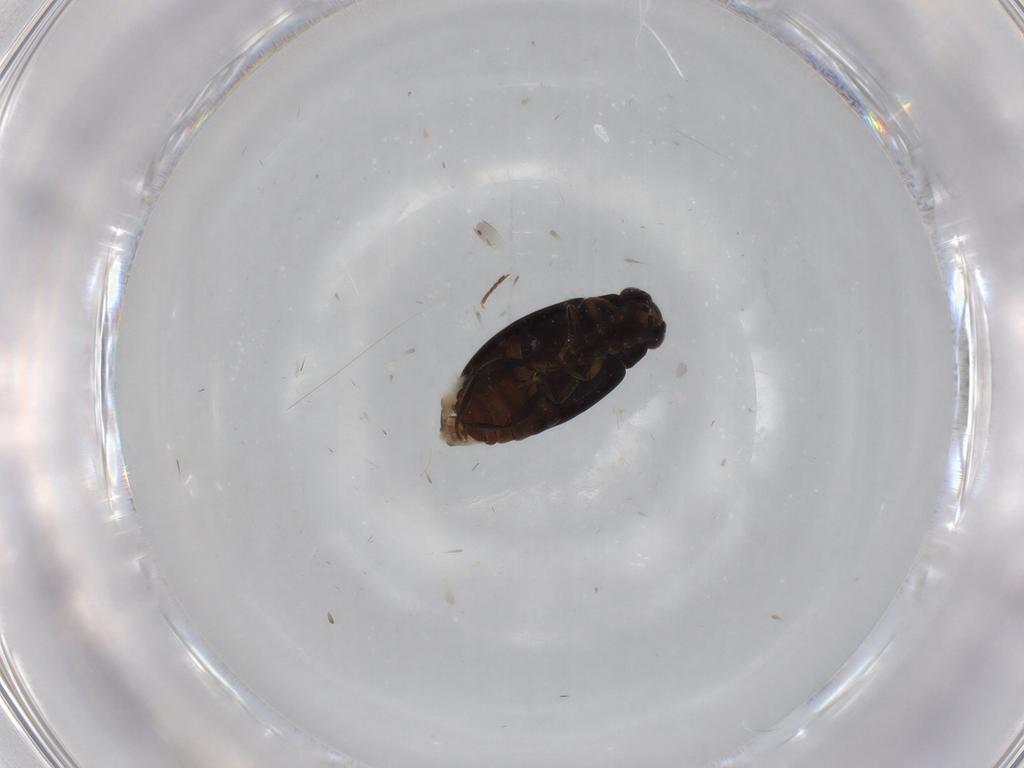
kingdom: Animalia
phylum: Arthropoda
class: Insecta
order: Coleoptera
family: Scirtidae
